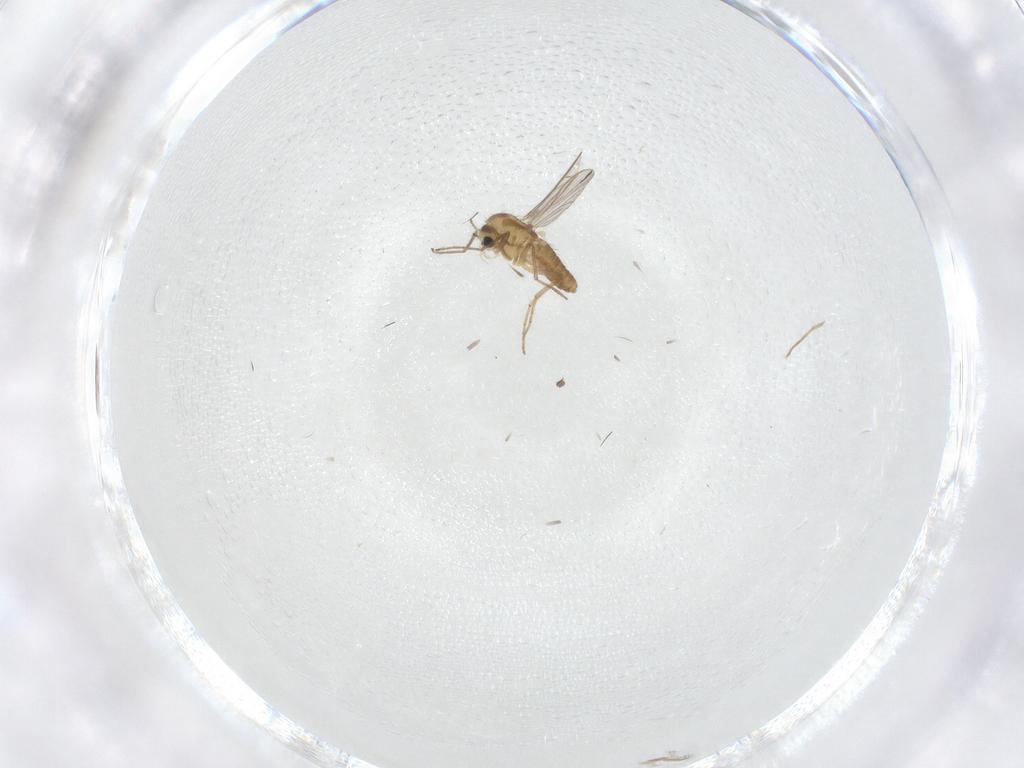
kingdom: Animalia
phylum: Arthropoda
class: Insecta
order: Diptera
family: Chironomidae
